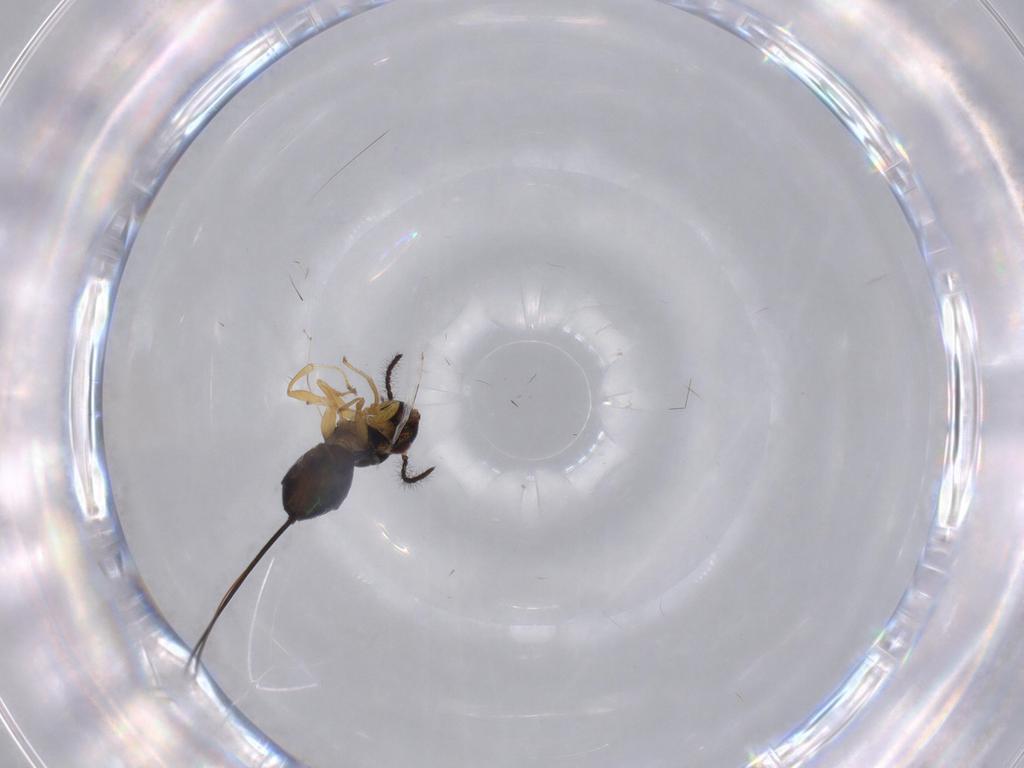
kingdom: Animalia
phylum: Arthropoda
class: Insecta
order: Hymenoptera
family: Pteromalidae
